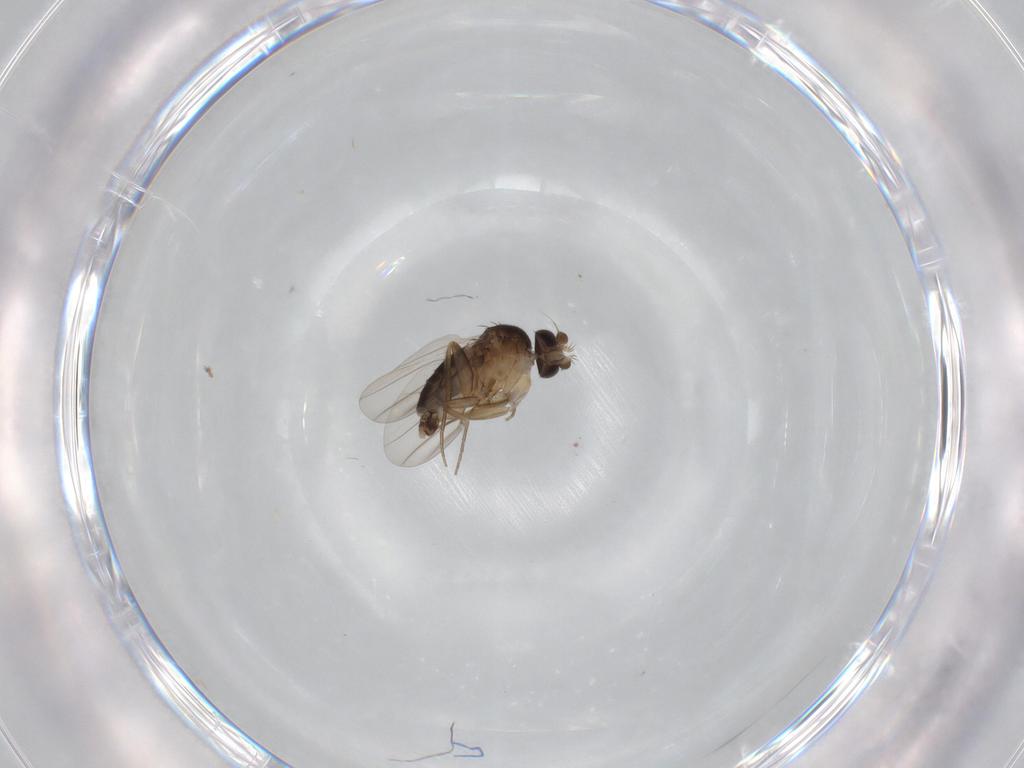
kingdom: Animalia
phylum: Arthropoda
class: Insecta
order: Diptera
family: Phoridae
